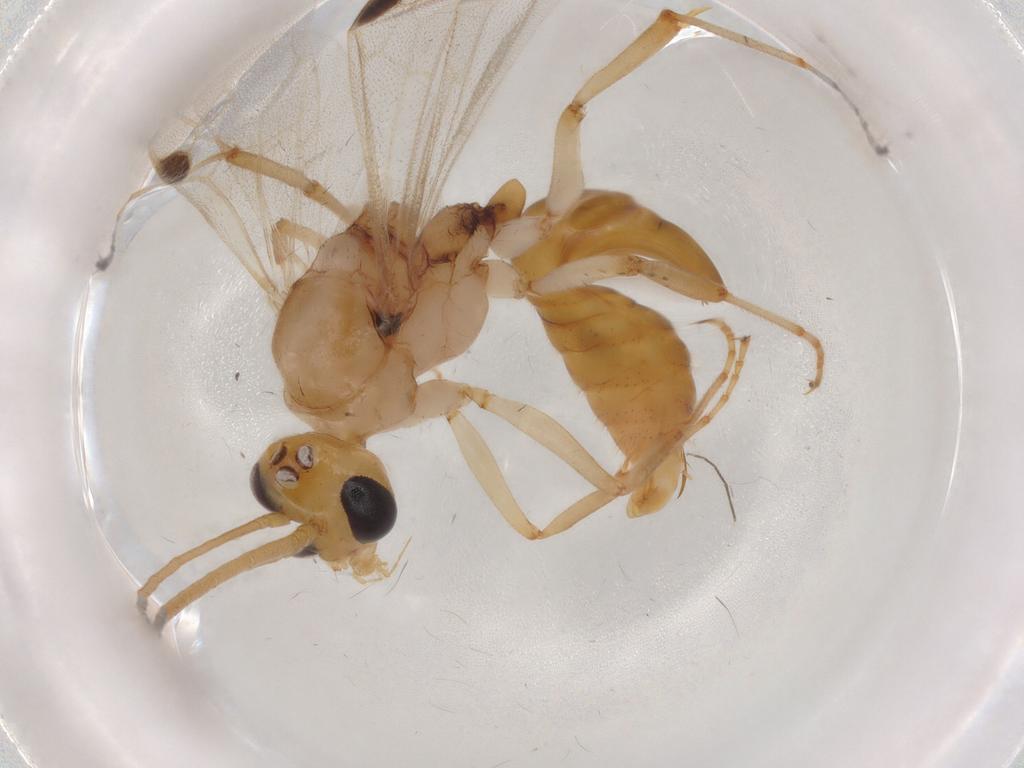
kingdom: Animalia
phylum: Arthropoda
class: Insecta
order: Hymenoptera
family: Formicidae
